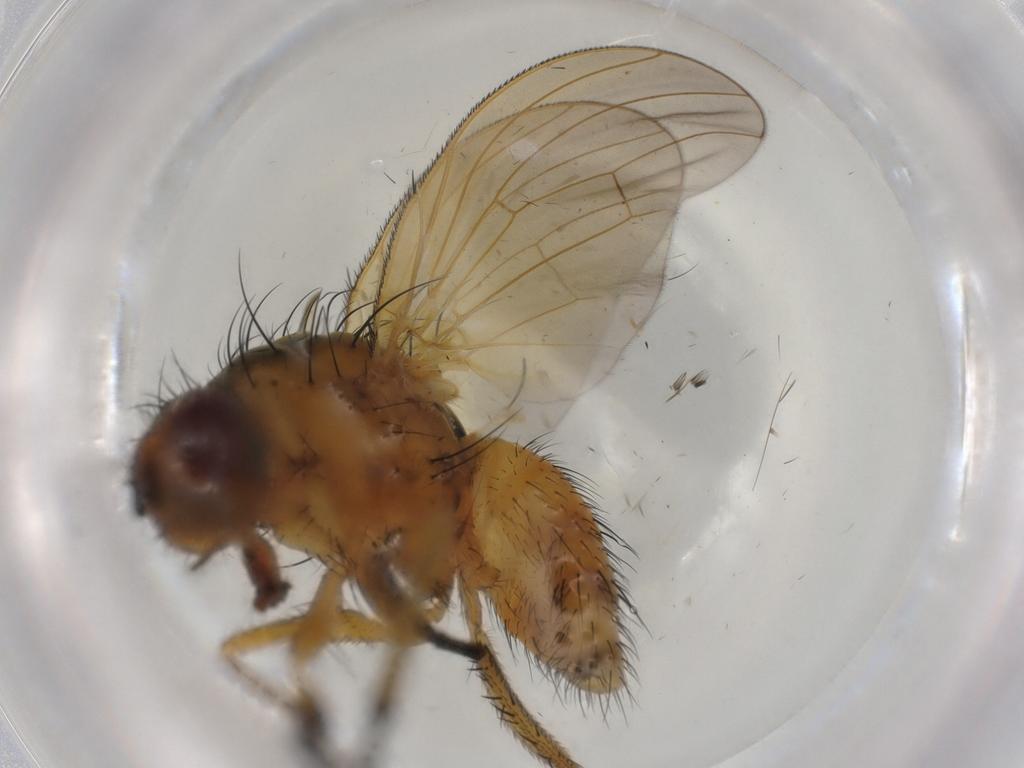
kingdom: Animalia
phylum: Arthropoda
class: Insecta
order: Diptera
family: Anthomyiidae
